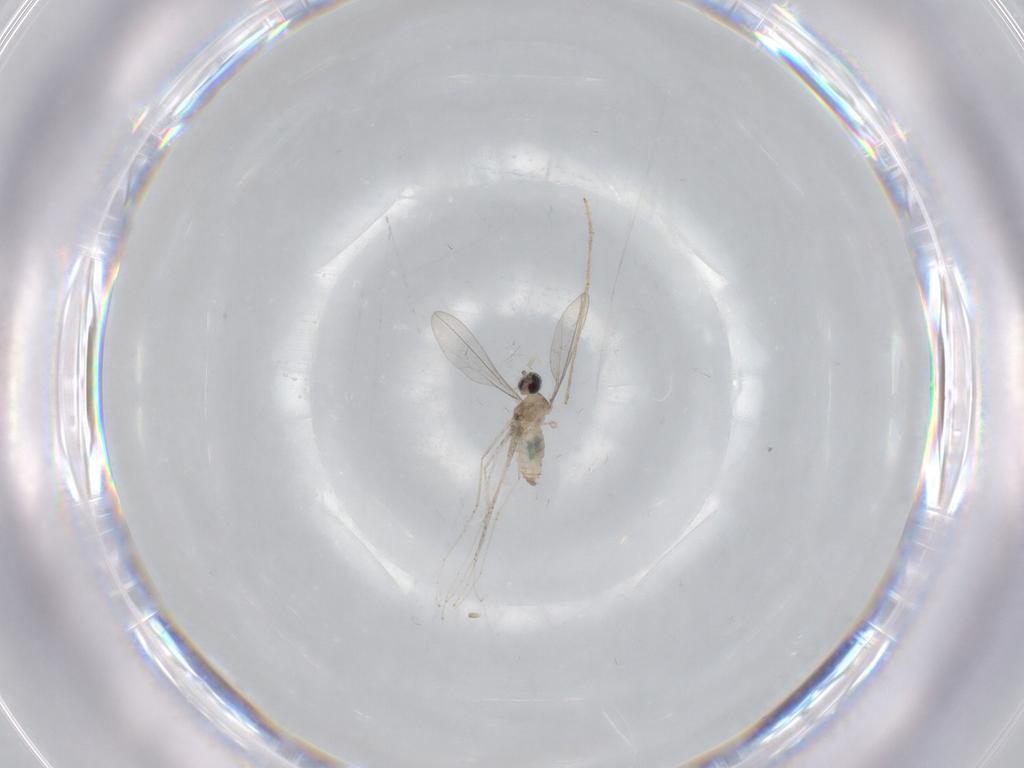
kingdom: Animalia
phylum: Arthropoda
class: Insecta
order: Diptera
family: Cecidomyiidae
